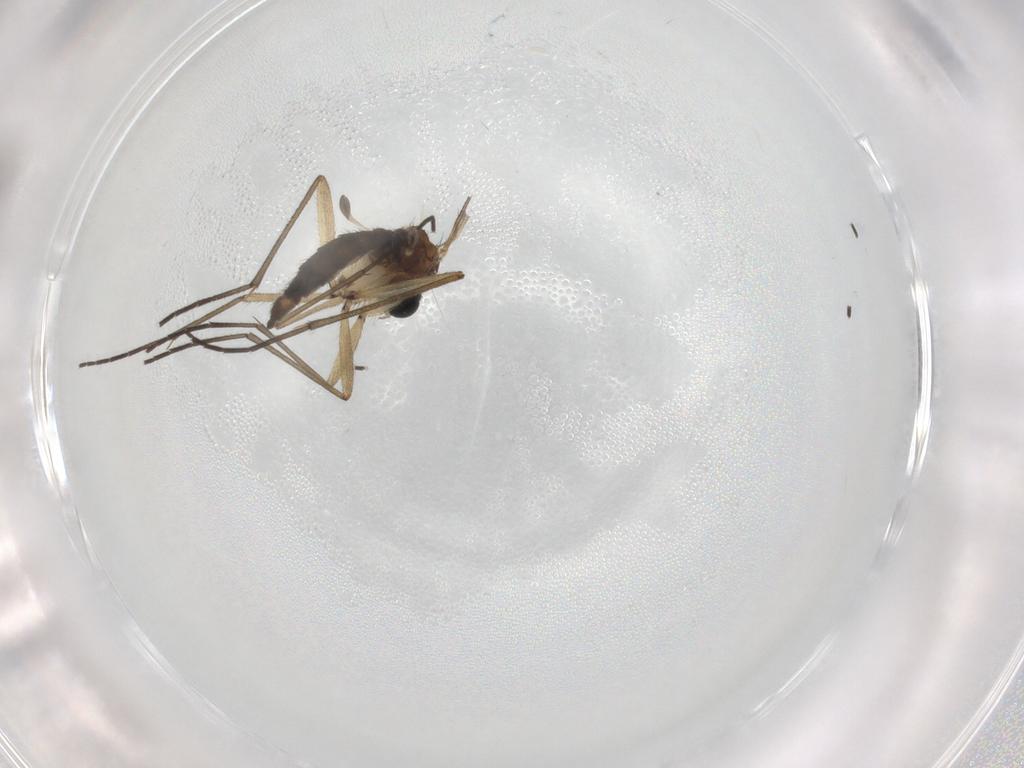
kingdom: Animalia
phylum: Arthropoda
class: Insecta
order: Diptera
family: Sciaridae
